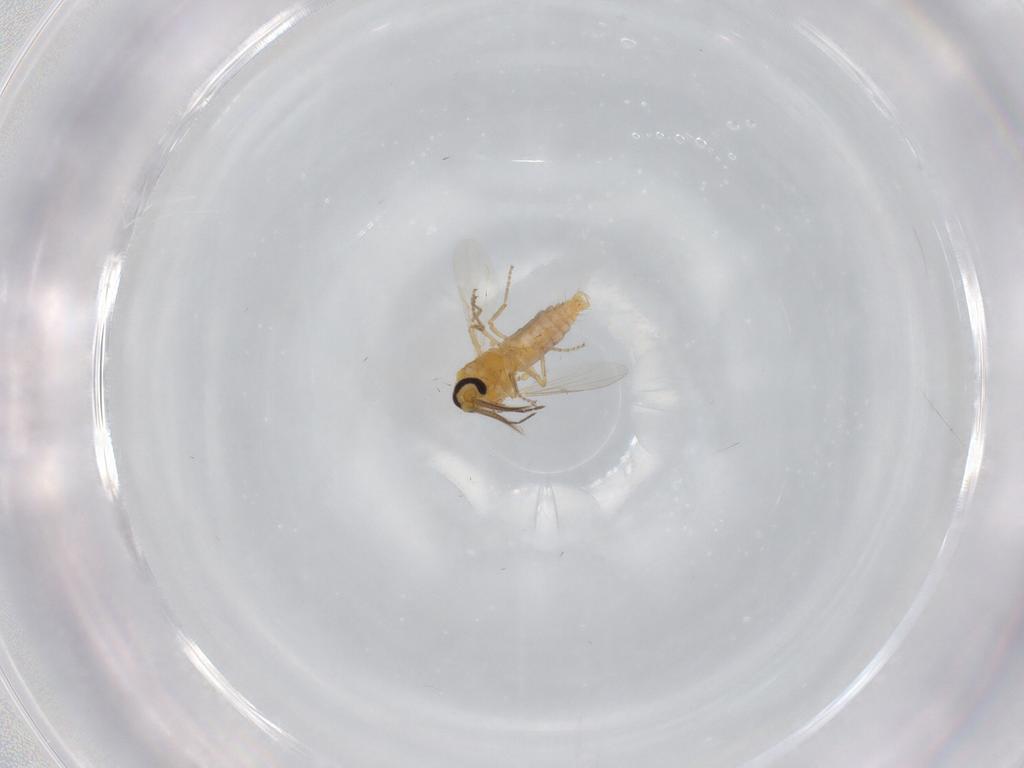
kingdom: Animalia
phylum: Arthropoda
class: Insecta
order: Diptera
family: Ceratopogonidae
